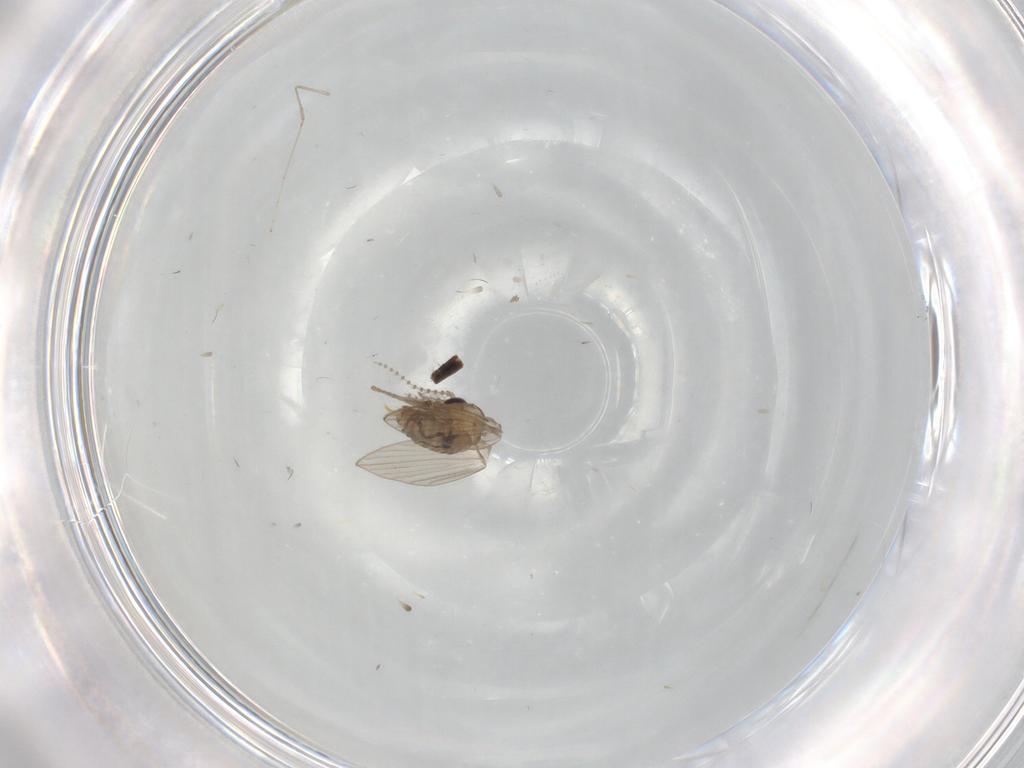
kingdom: Animalia
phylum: Arthropoda
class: Insecta
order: Diptera
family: Psychodidae
